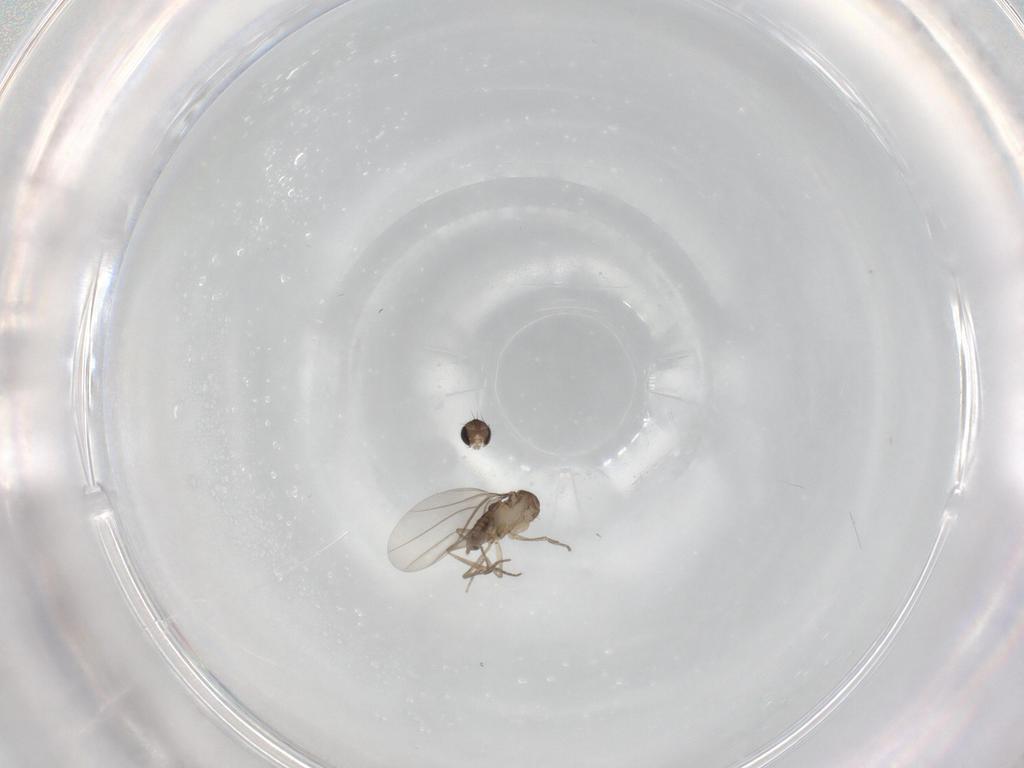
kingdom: Animalia
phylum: Arthropoda
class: Insecta
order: Diptera
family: Phoridae
